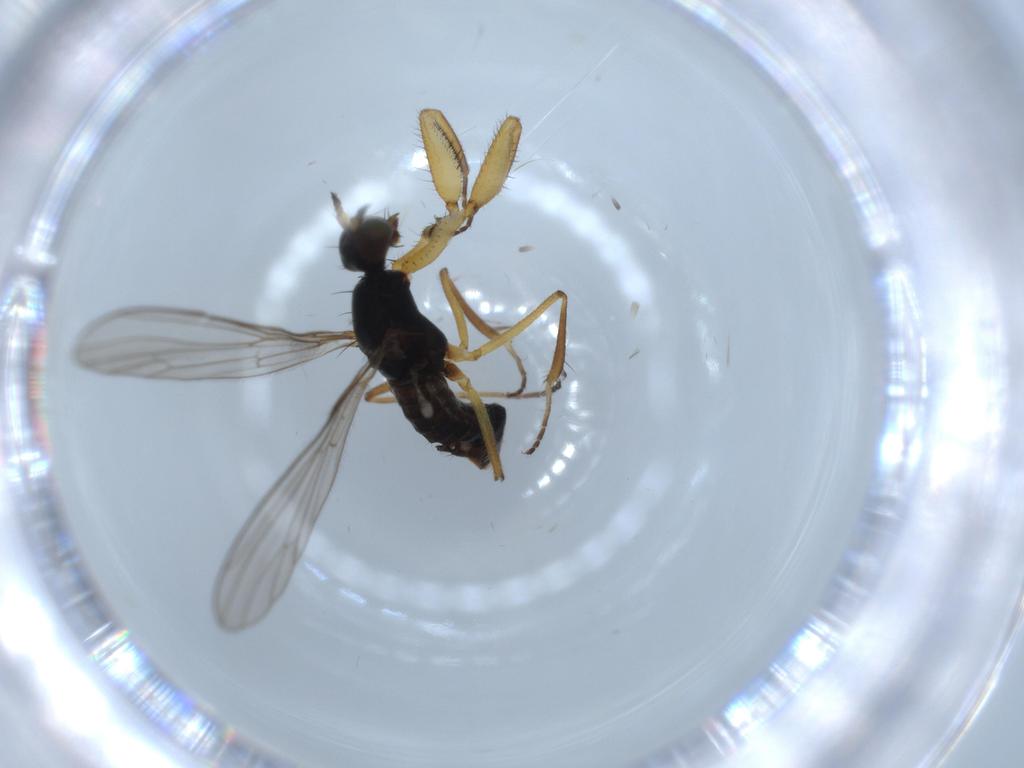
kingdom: Animalia
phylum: Arthropoda
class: Insecta
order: Diptera
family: Empididae
